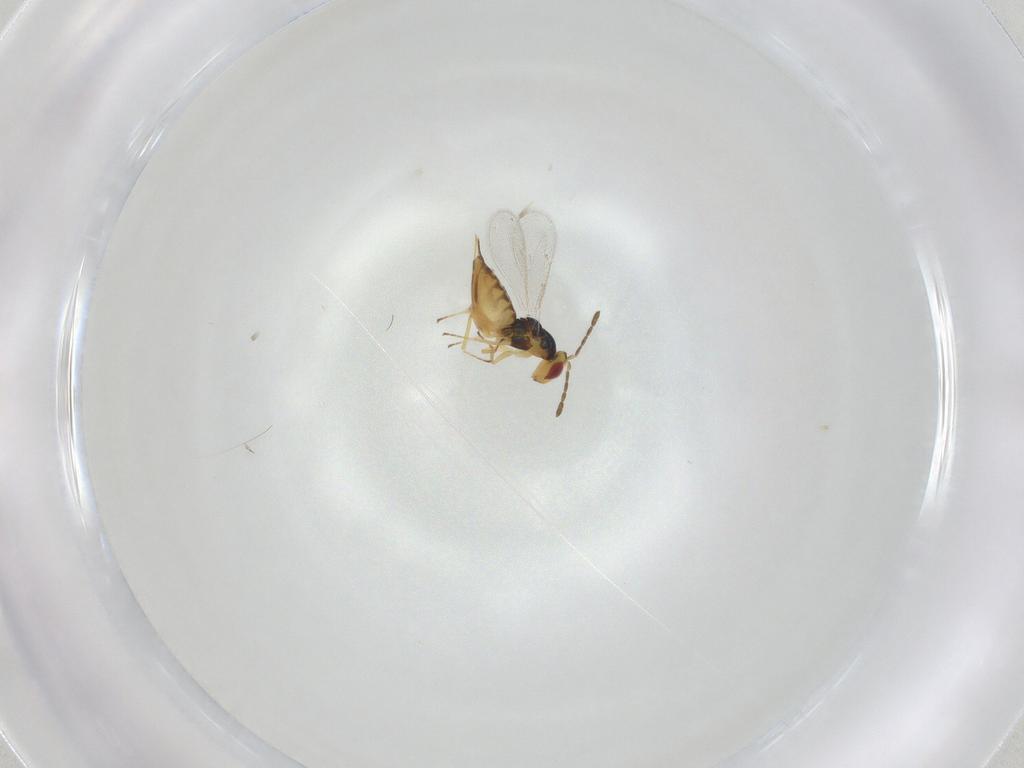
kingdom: Animalia
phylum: Arthropoda
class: Insecta
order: Hymenoptera
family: Eulophidae
